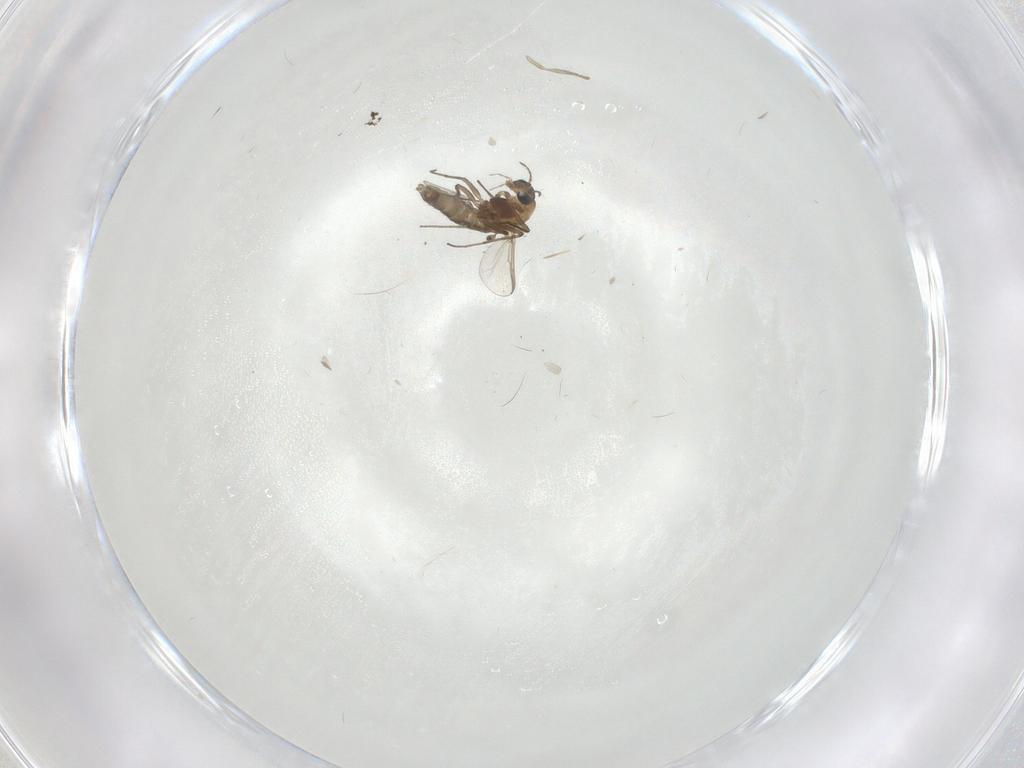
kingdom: Animalia
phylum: Arthropoda
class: Insecta
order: Diptera
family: Chironomidae
